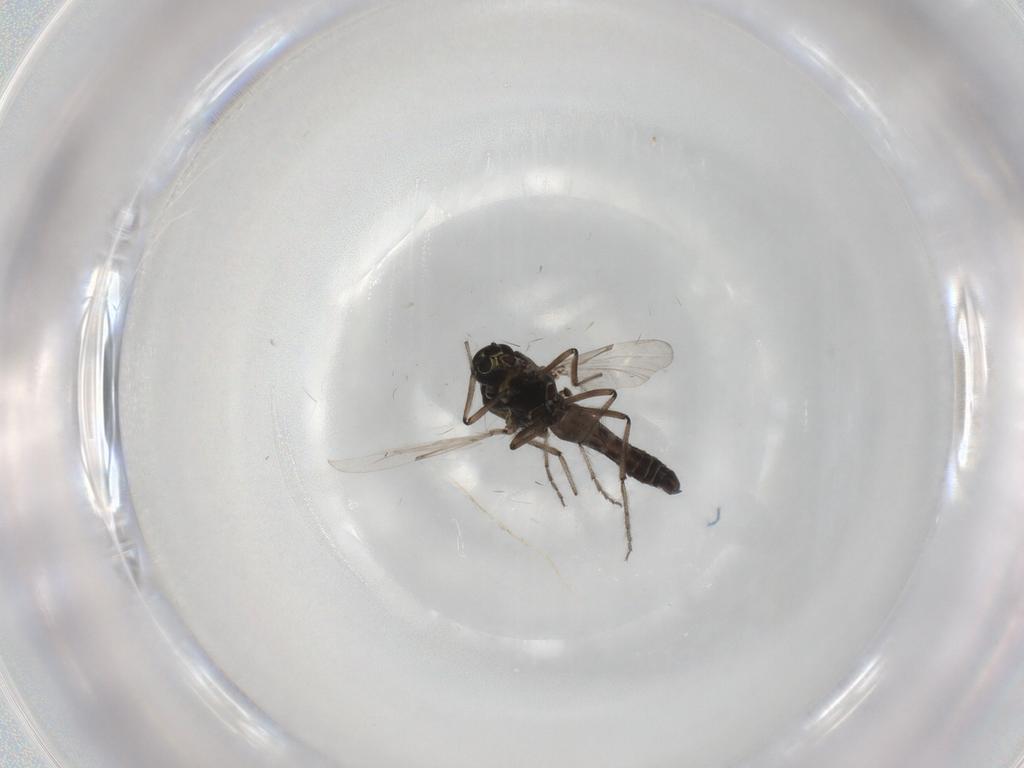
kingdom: Animalia
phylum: Arthropoda
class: Insecta
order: Diptera
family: Ceratopogonidae
